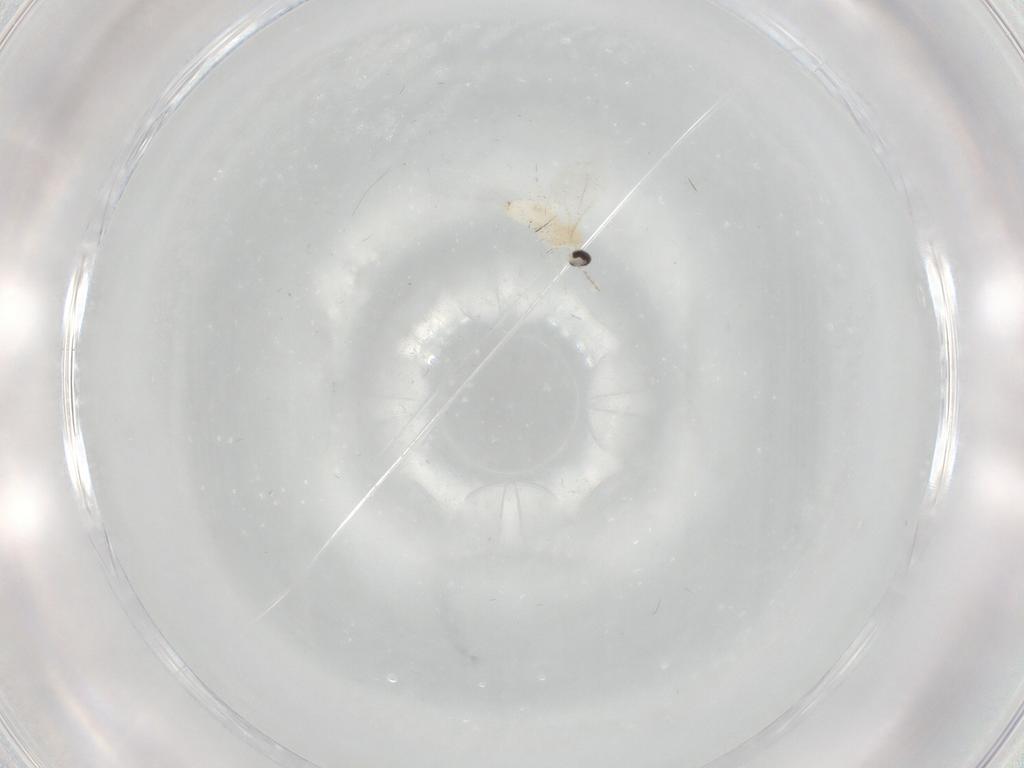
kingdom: Animalia
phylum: Arthropoda
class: Insecta
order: Diptera
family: Cecidomyiidae
